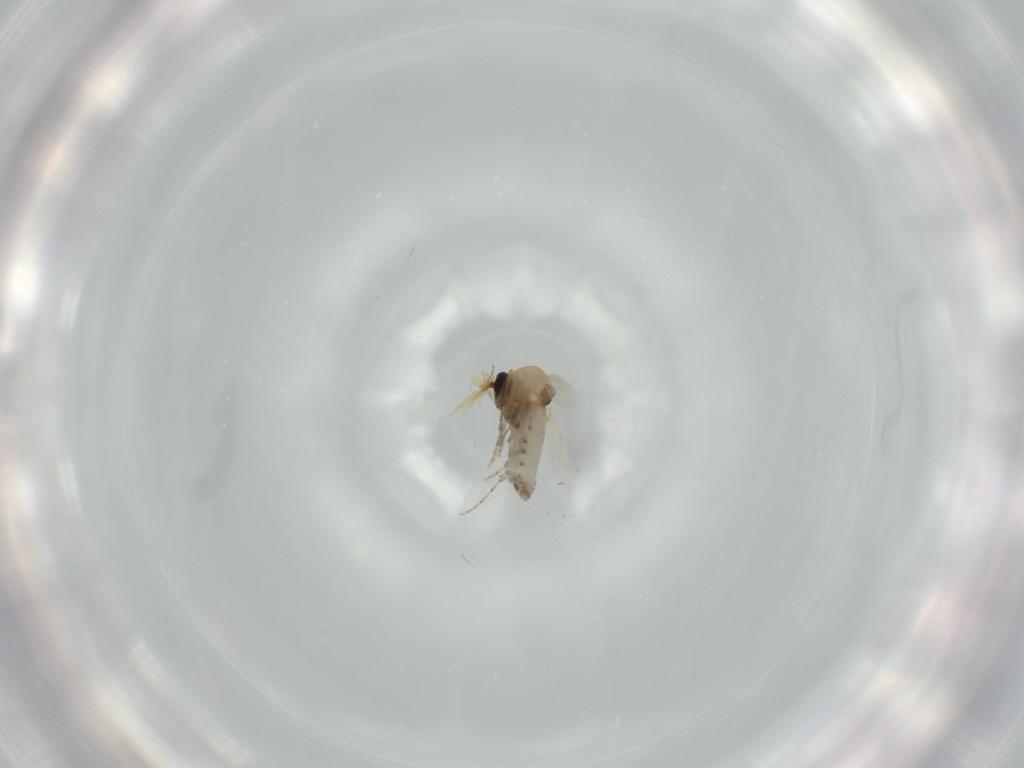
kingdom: Animalia
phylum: Arthropoda
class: Insecta
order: Diptera
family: Ceratopogonidae
